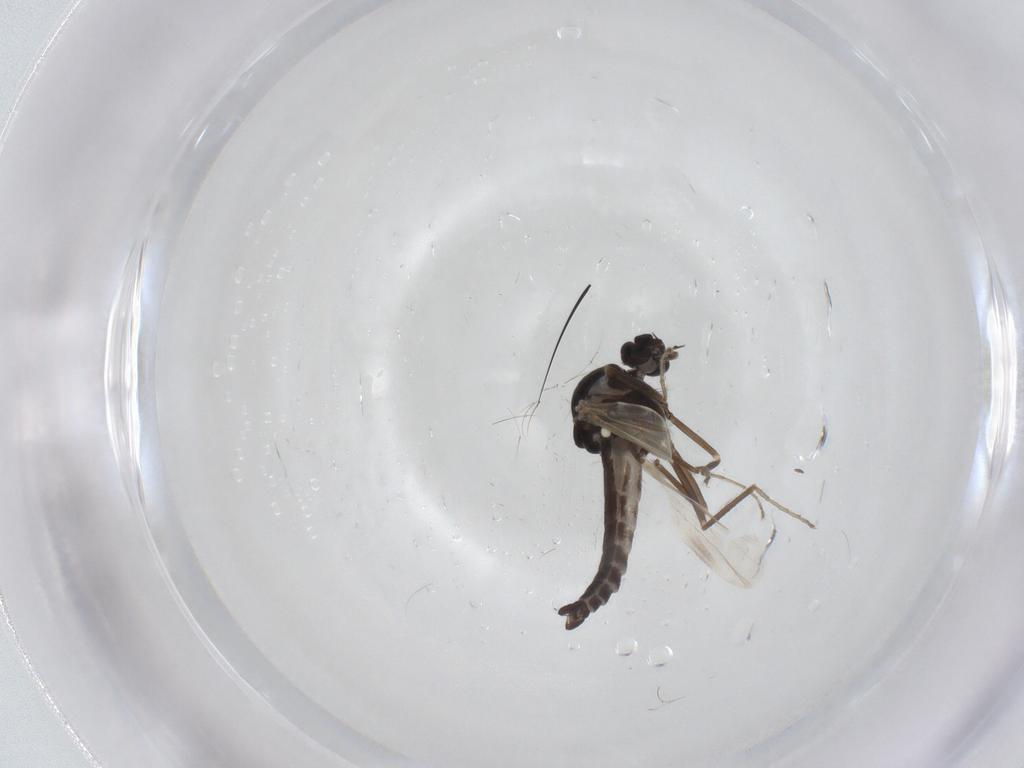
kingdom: Animalia
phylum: Arthropoda
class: Insecta
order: Diptera
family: Ceratopogonidae
